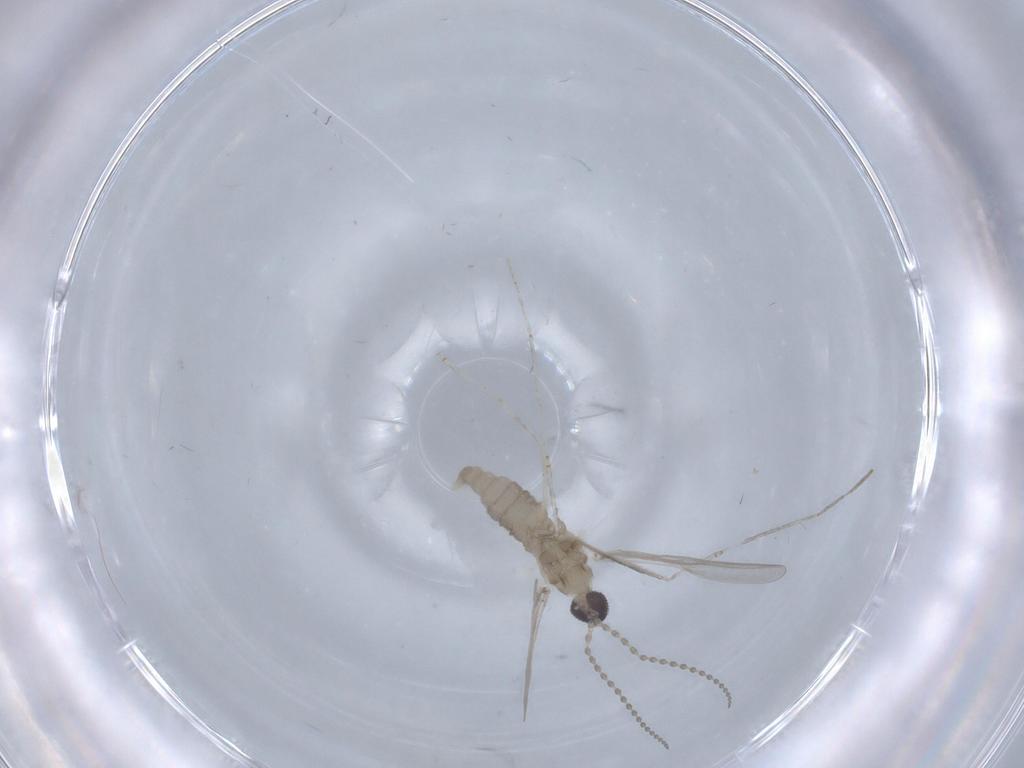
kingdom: Animalia
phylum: Arthropoda
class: Insecta
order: Diptera
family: Cecidomyiidae
